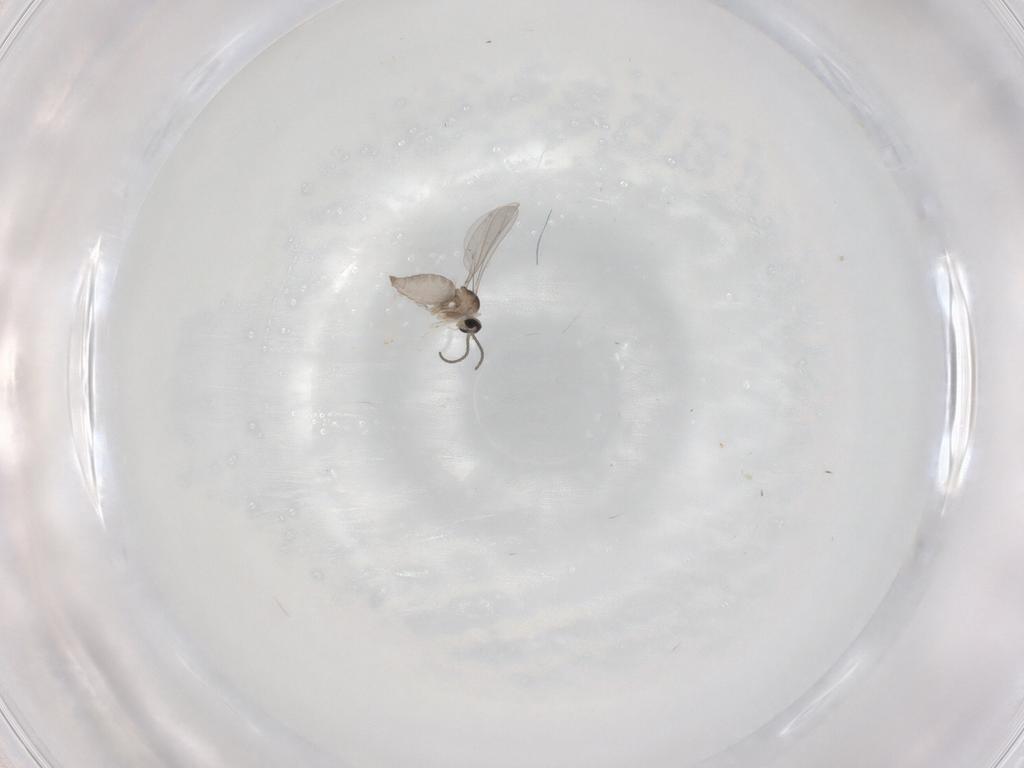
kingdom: Animalia
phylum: Arthropoda
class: Insecta
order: Diptera
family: Cecidomyiidae
